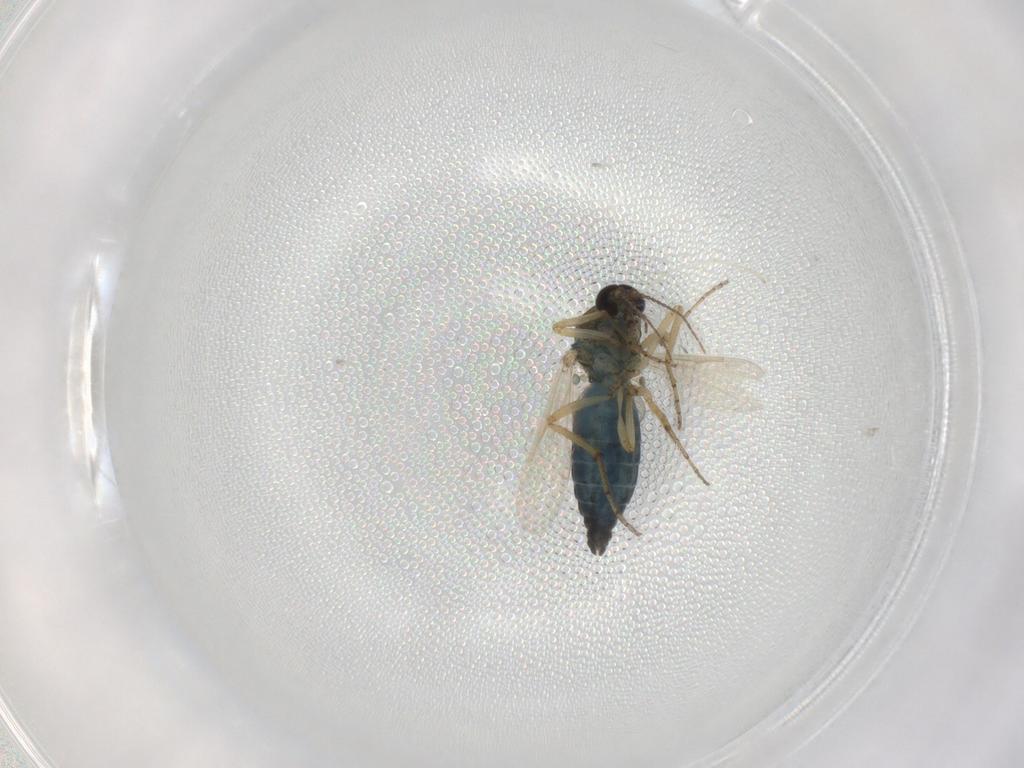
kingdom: Animalia
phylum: Arthropoda
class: Insecta
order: Diptera
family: Ceratopogonidae
